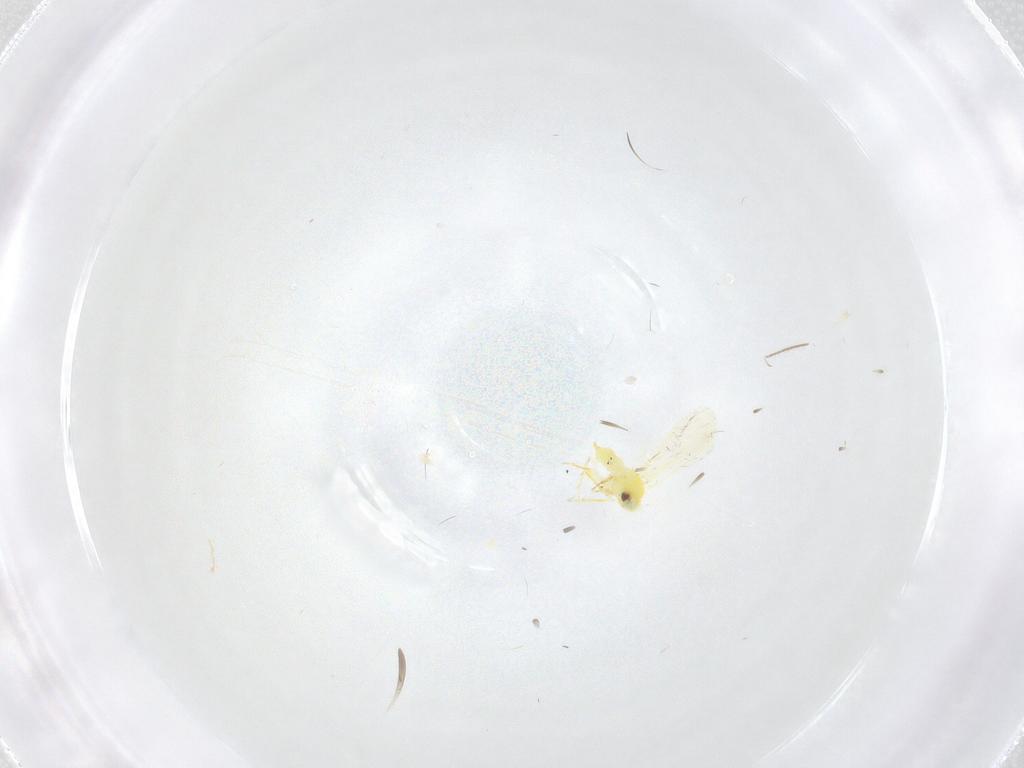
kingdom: Animalia
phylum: Arthropoda
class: Insecta
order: Hemiptera
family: Aleyrodidae
